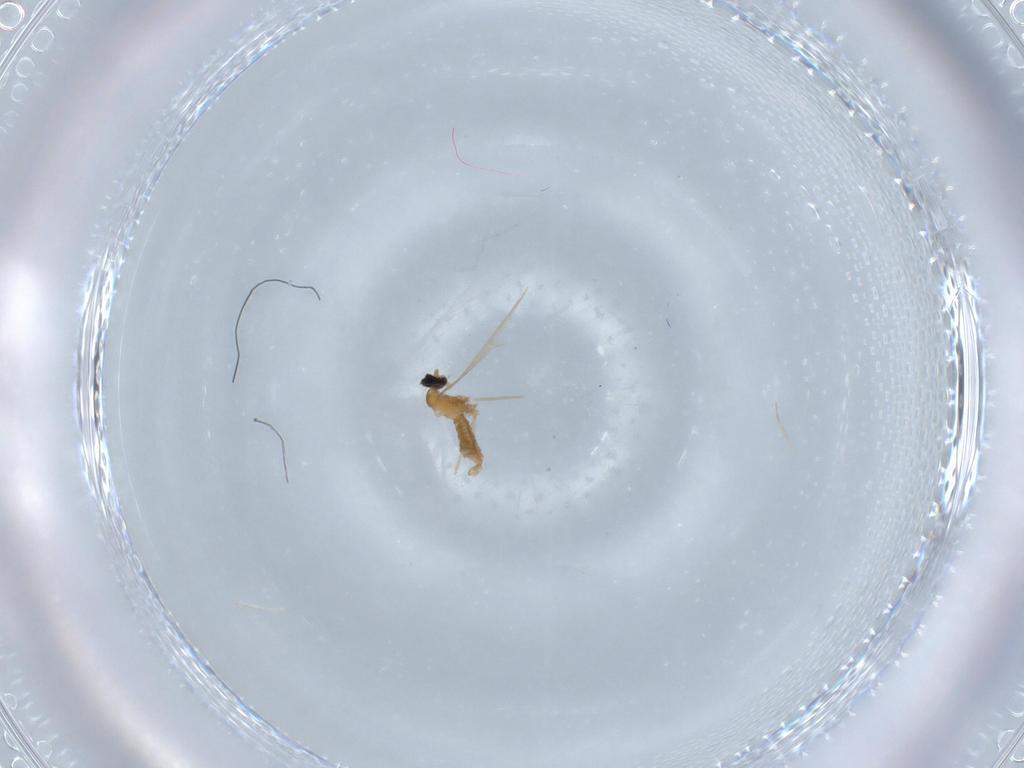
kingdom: Animalia
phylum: Arthropoda
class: Insecta
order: Diptera
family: Cecidomyiidae
